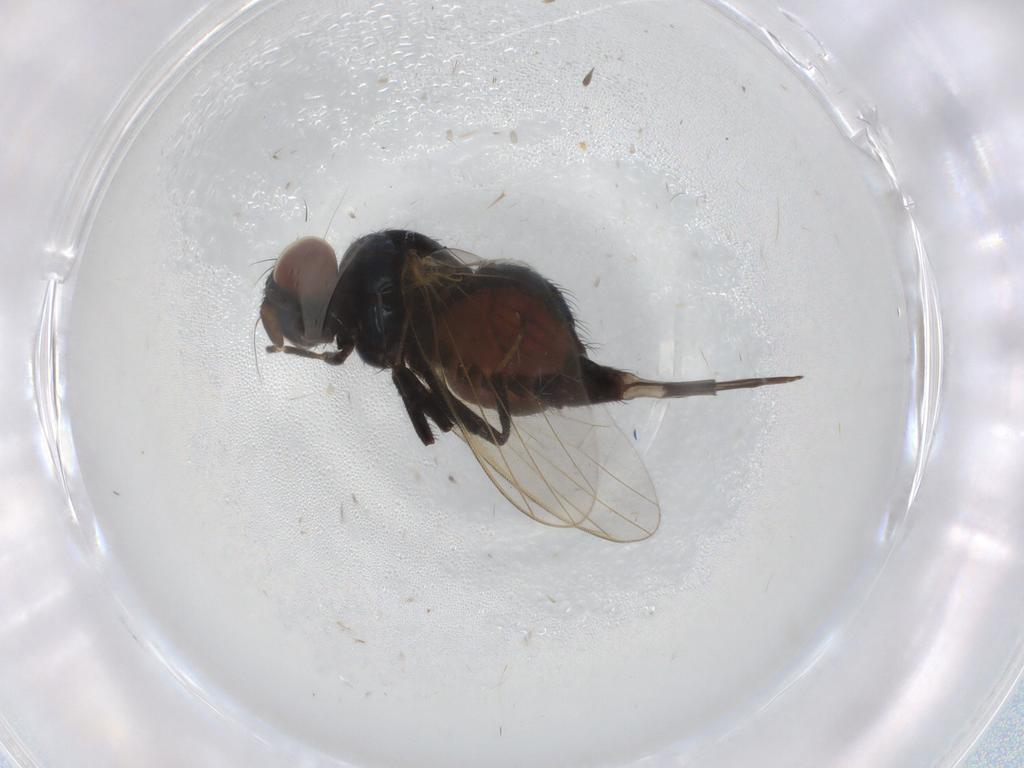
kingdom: Animalia
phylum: Arthropoda
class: Insecta
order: Diptera
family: Lonchaeidae
